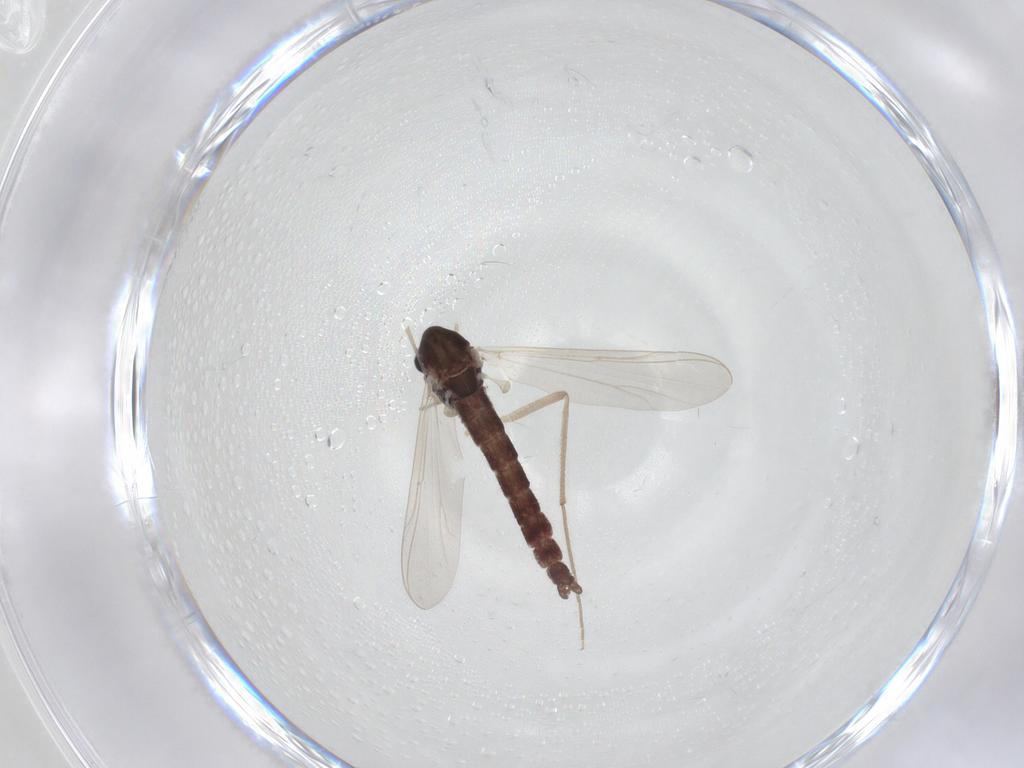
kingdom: Animalia
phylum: Arthropoda
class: Insecta
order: Diptera
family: Chironomidae
